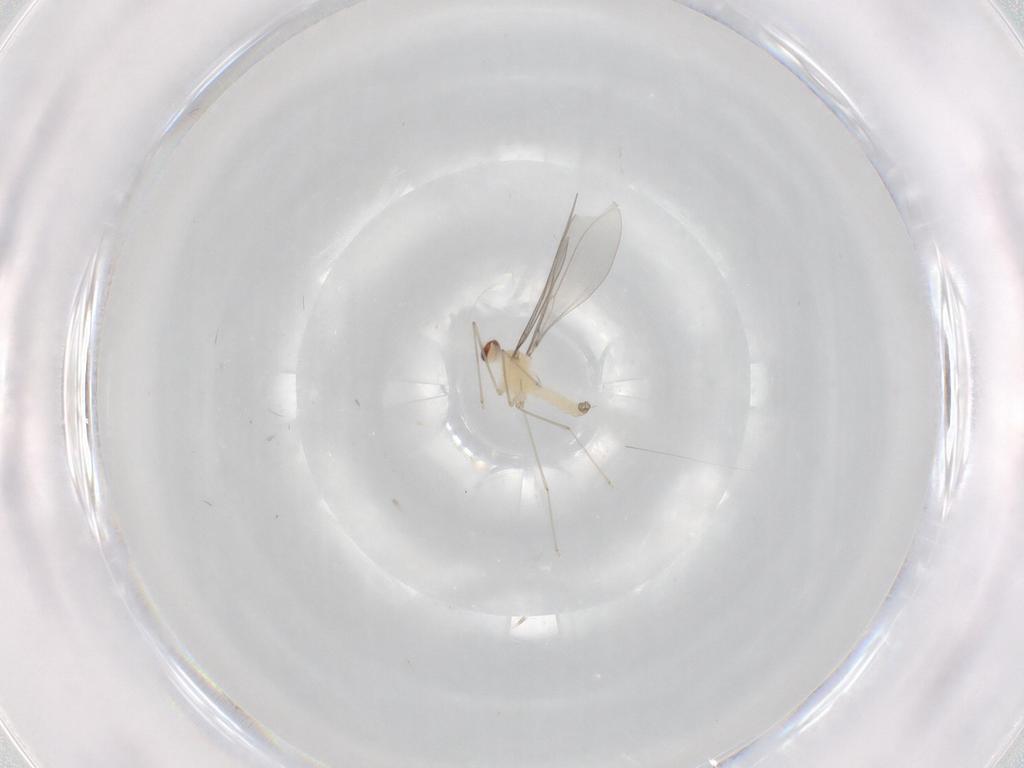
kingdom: Animalia
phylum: Arthropoda
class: Insecta
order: Diptera
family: Cecidomyiidae
